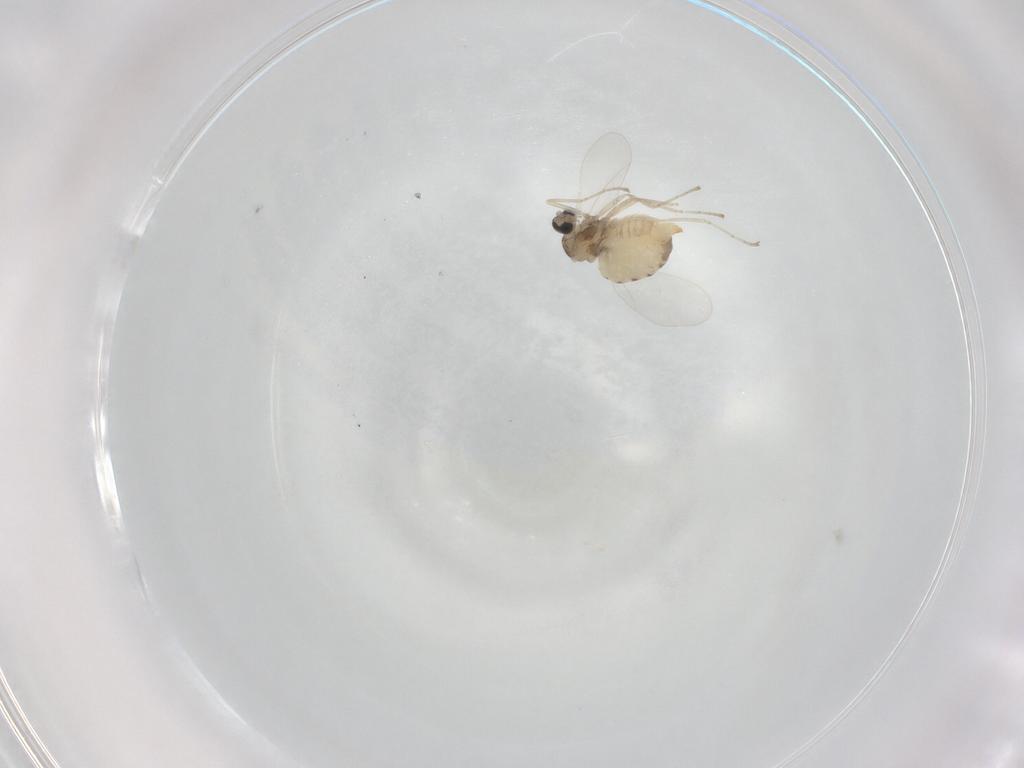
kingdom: Animalia
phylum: Arthropoda
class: Insecta
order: Diptera
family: Cecidomyiidae
